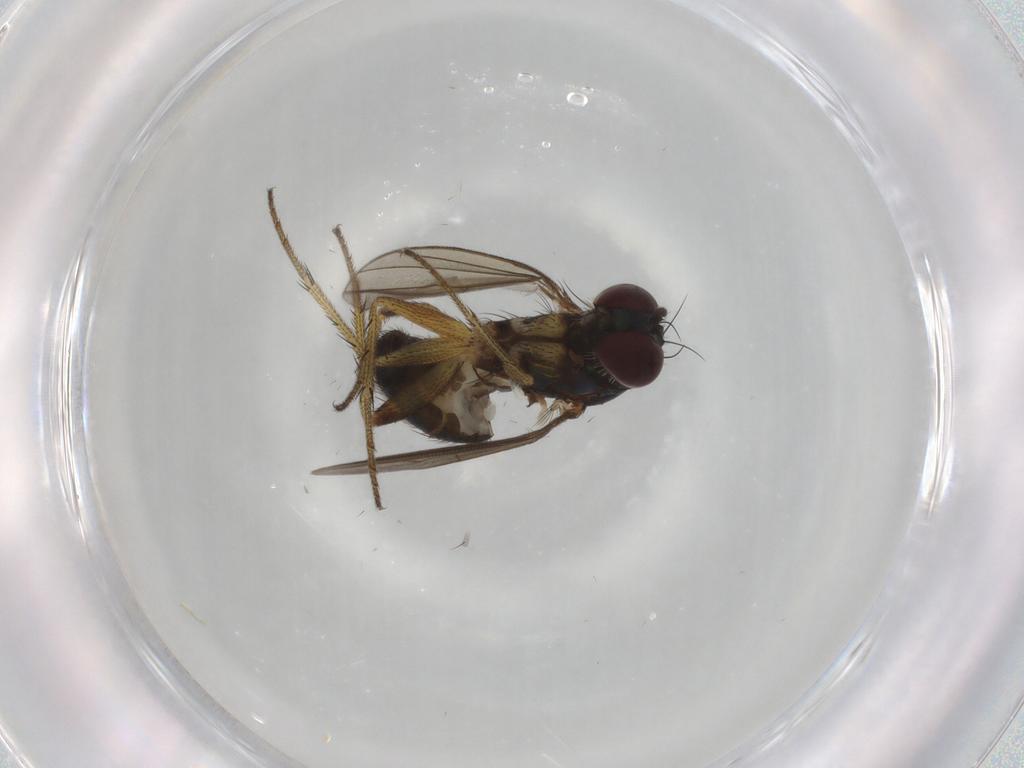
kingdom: Animalia
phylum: Arthropoda
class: Insecta
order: Diptera
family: Dolichopodidae
